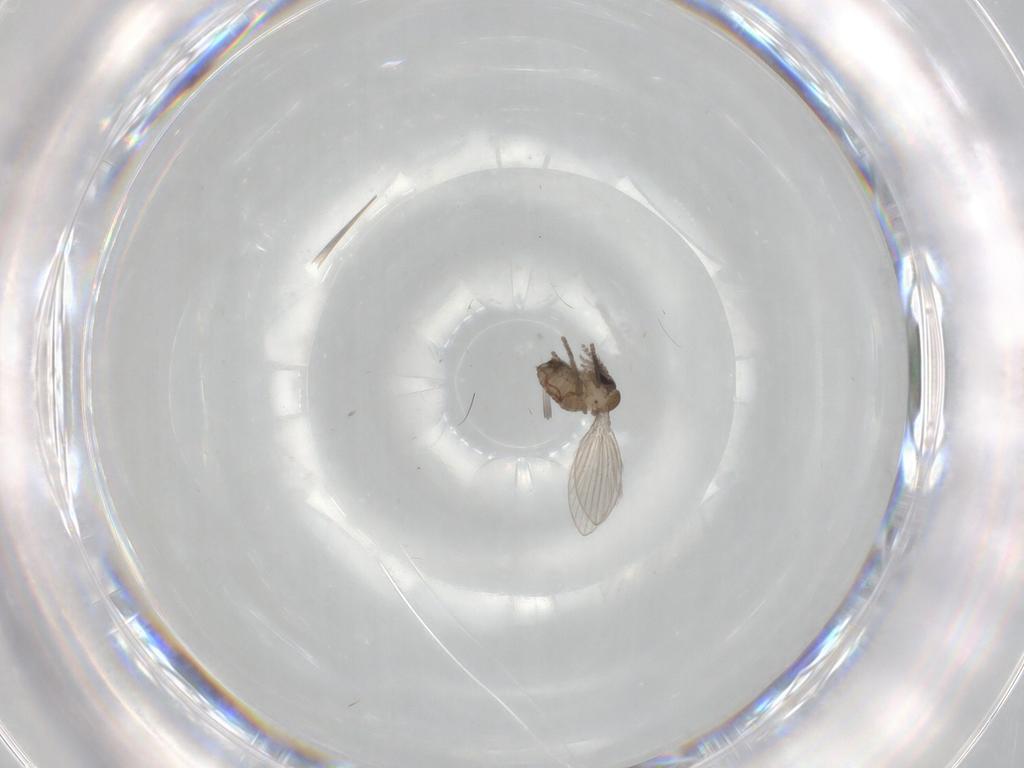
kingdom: Animalia
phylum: Arthropoda
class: Insecta
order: Diptera
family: Psychodidae
